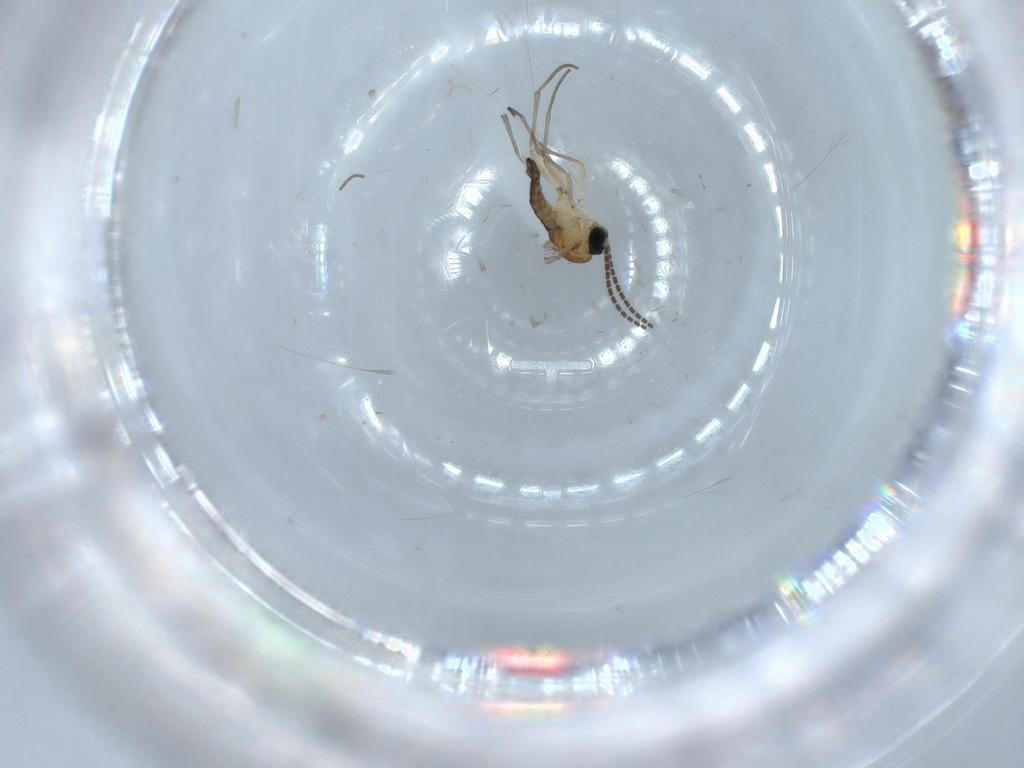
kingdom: Animalia
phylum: Arthropoda
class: Insecta
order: Diptera
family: Sciaridae
